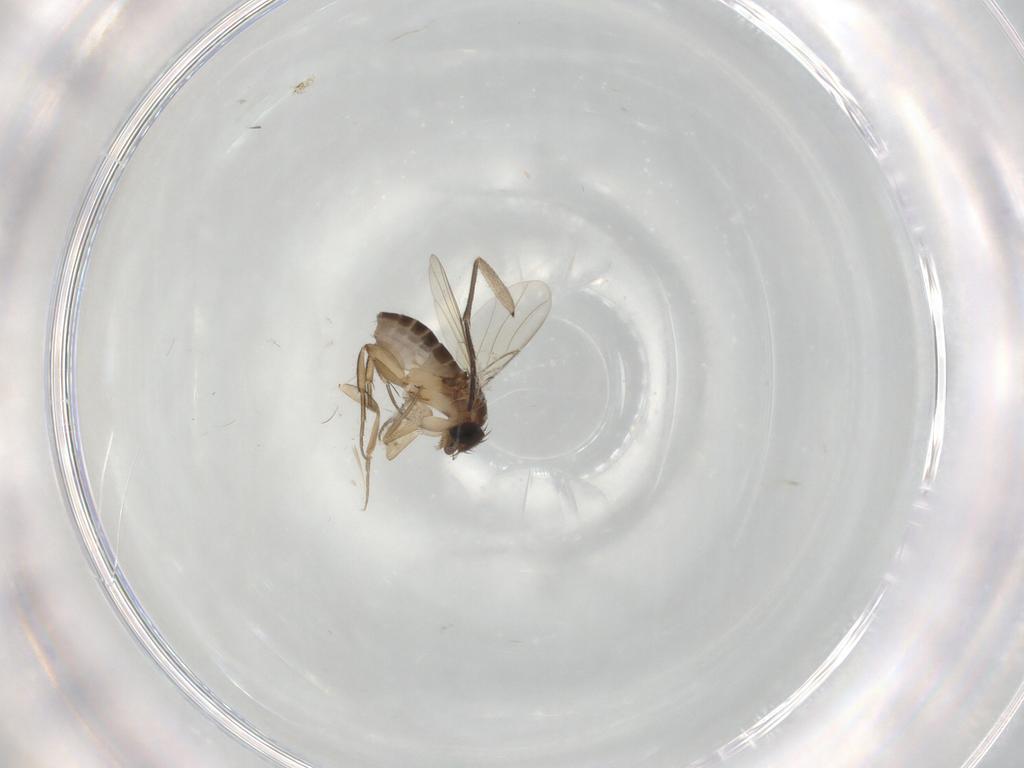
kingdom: Animalia
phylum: Arthropoda
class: Insecta
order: Diptera
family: Phoridae
